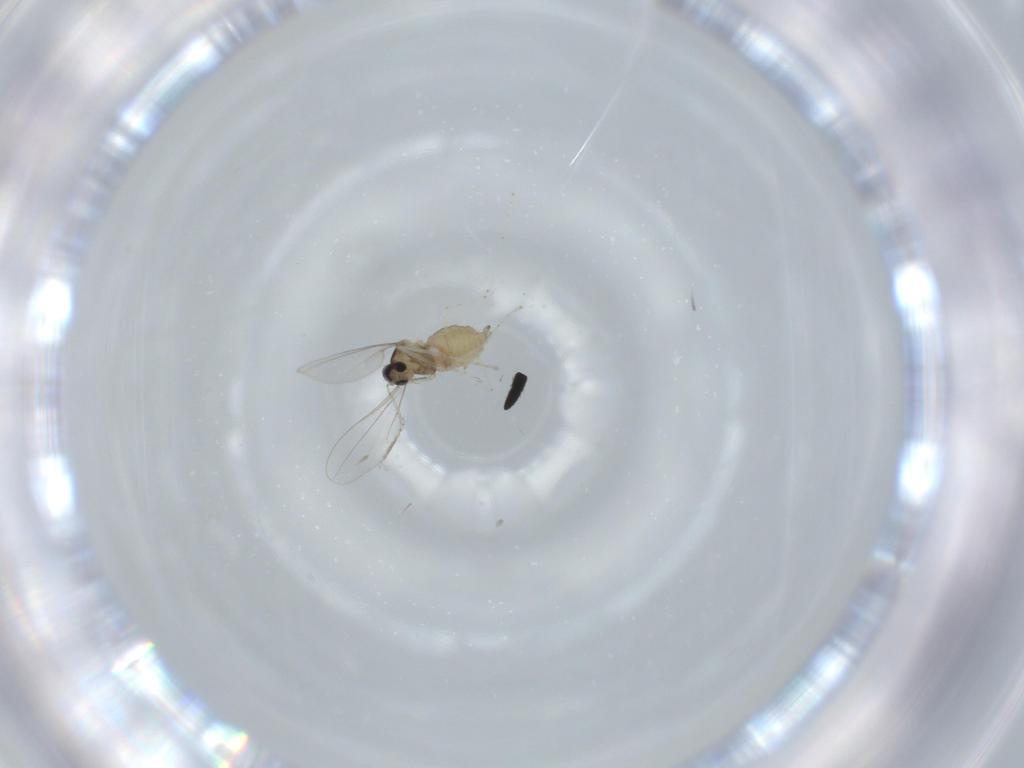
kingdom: Animalia
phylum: Arthropoda
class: Insecta
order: Diptera
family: Cecidomyiidae
